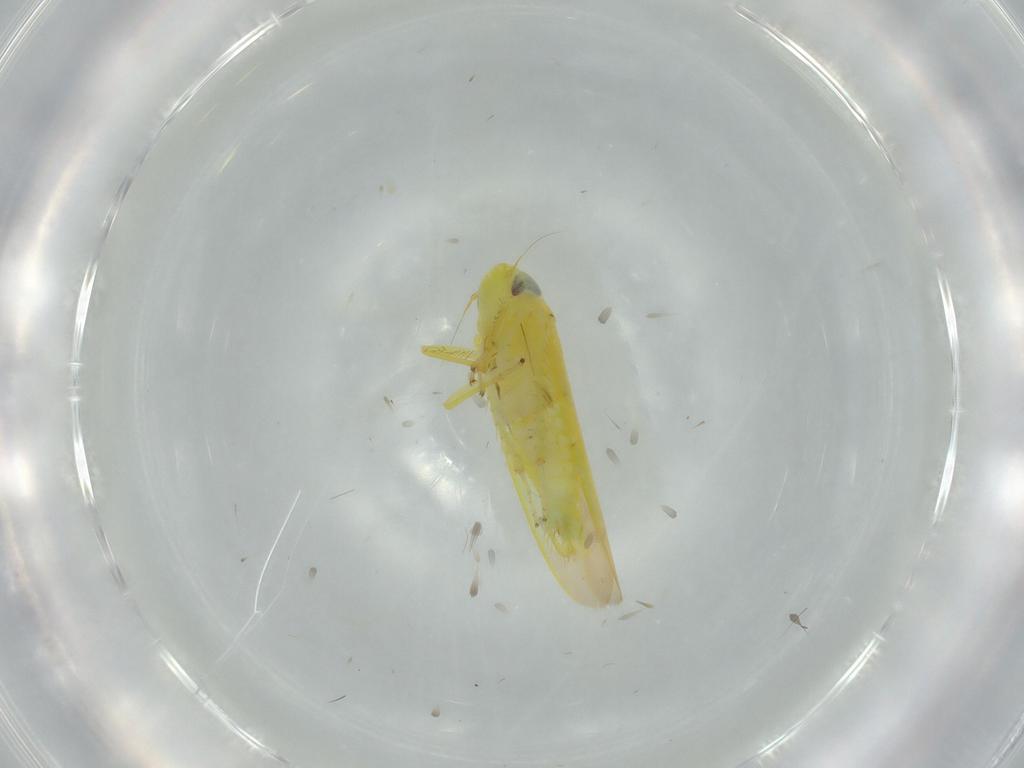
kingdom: Animalia
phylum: Arthropoda
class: Insecta
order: Hemiptera
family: Cicadellidae
